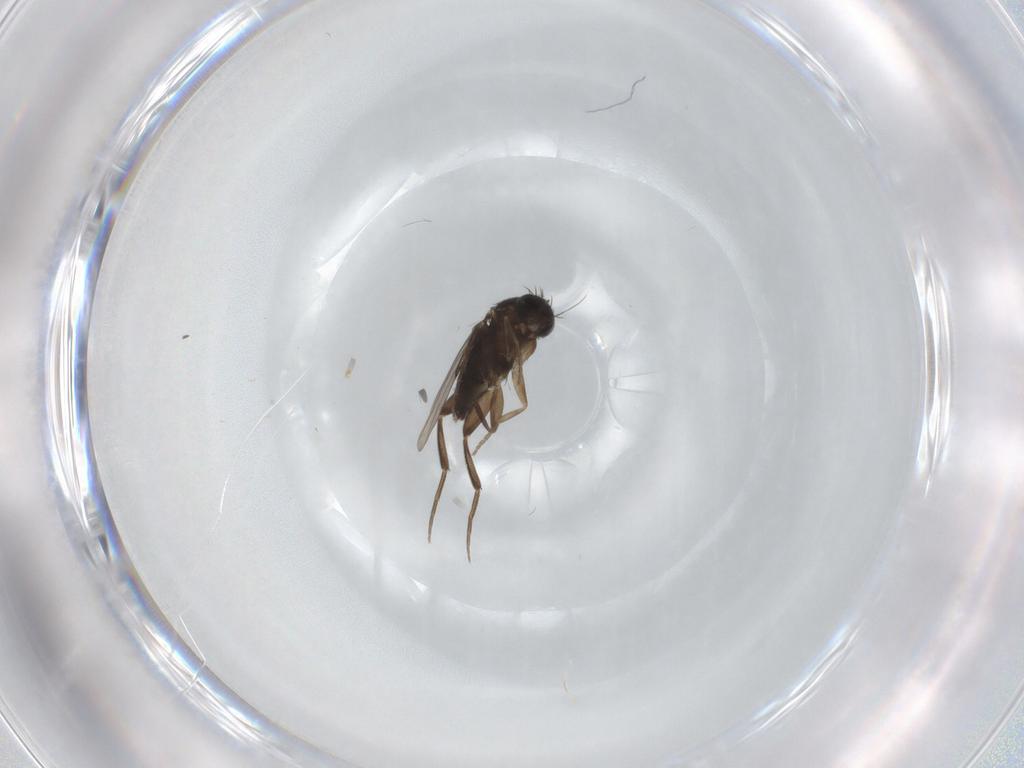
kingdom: Animalia
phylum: Arthropoda
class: Insecta
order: Diptera
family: Phoridae
